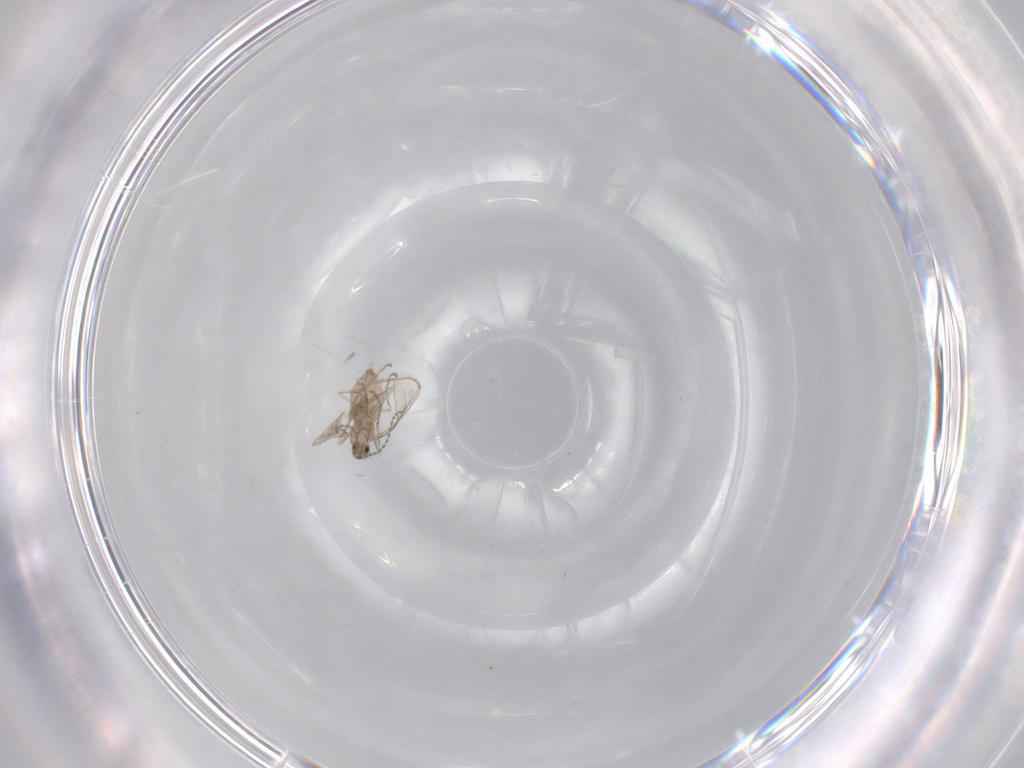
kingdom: Animalia
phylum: Arthropoda
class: Insecta
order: Diptera
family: Cecidomyiidae
